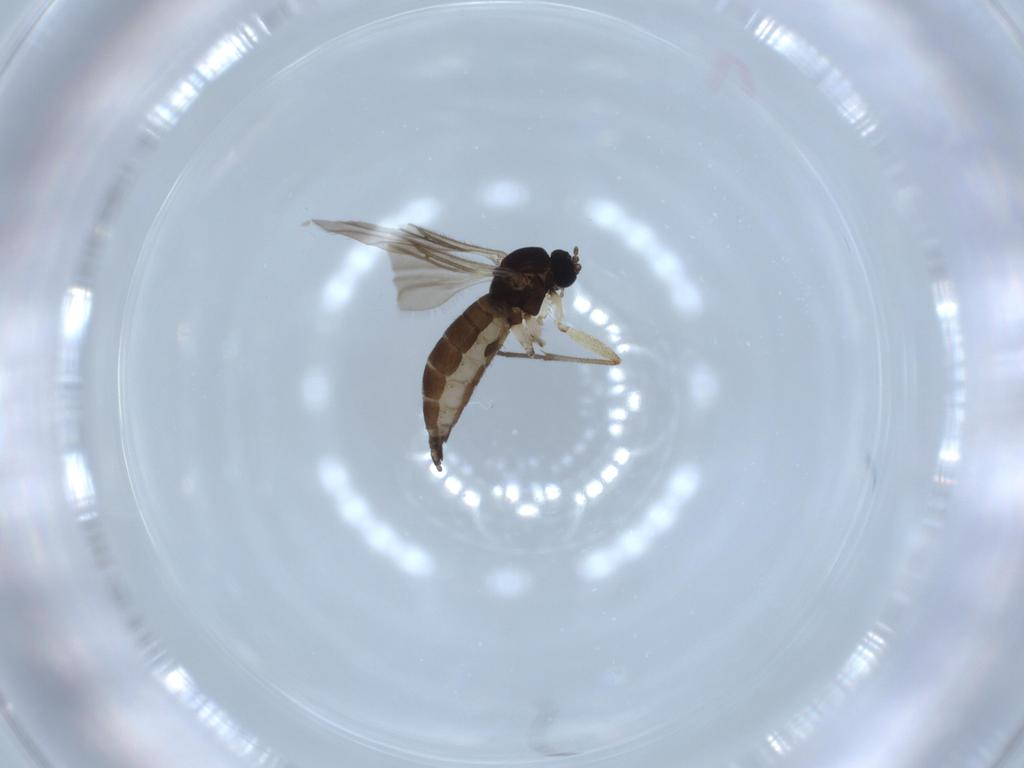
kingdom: Animalia
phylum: Arthropoda
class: Insecta
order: Diptera
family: Sciaridae
